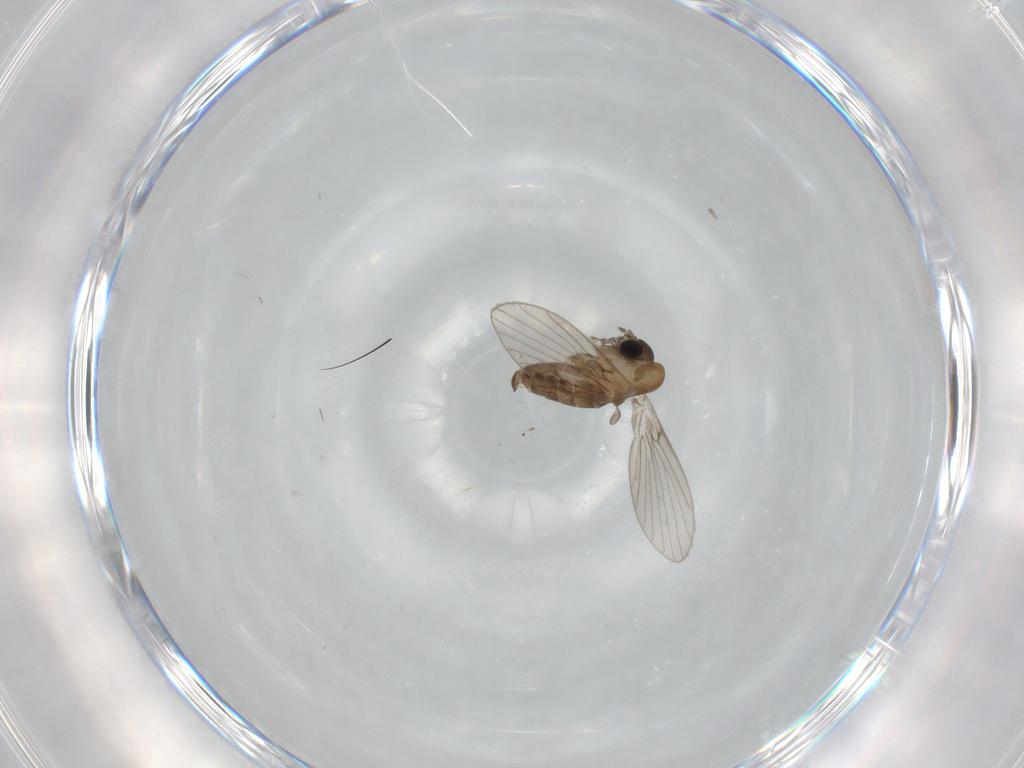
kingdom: Animalia
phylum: Arthropoda
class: Insecta
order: Diptera
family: Psychodidae
